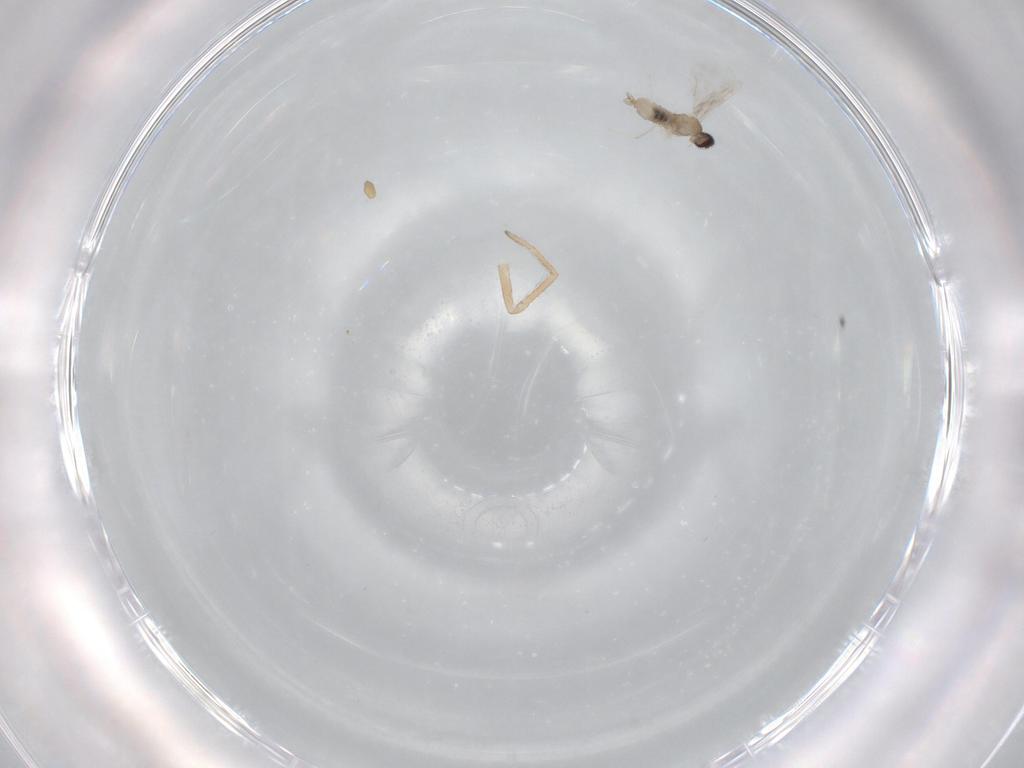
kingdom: Animalia
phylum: Arthropoda
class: Insecta
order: Diptera
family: Cecidomyiidae
